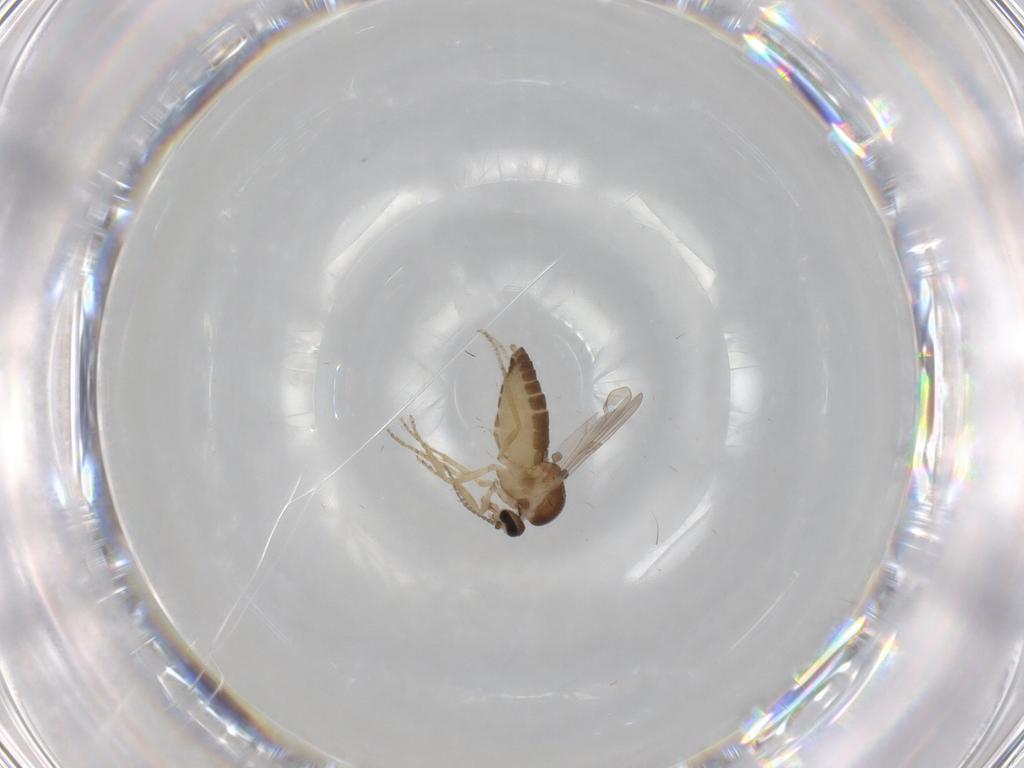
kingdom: Animalia
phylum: Arthropoda
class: Insecta
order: Diptera
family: Ceratopogonidae
